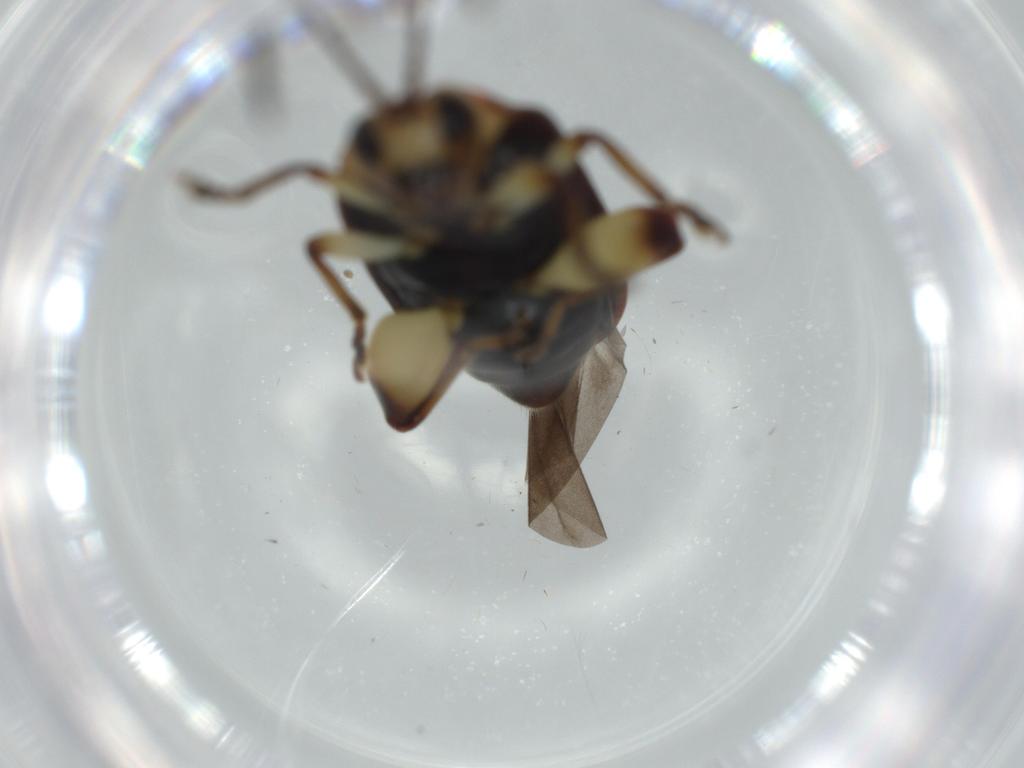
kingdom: Animalia
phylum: Arthropoda
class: Insecta
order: Coleoptera
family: Chrysomelidae
